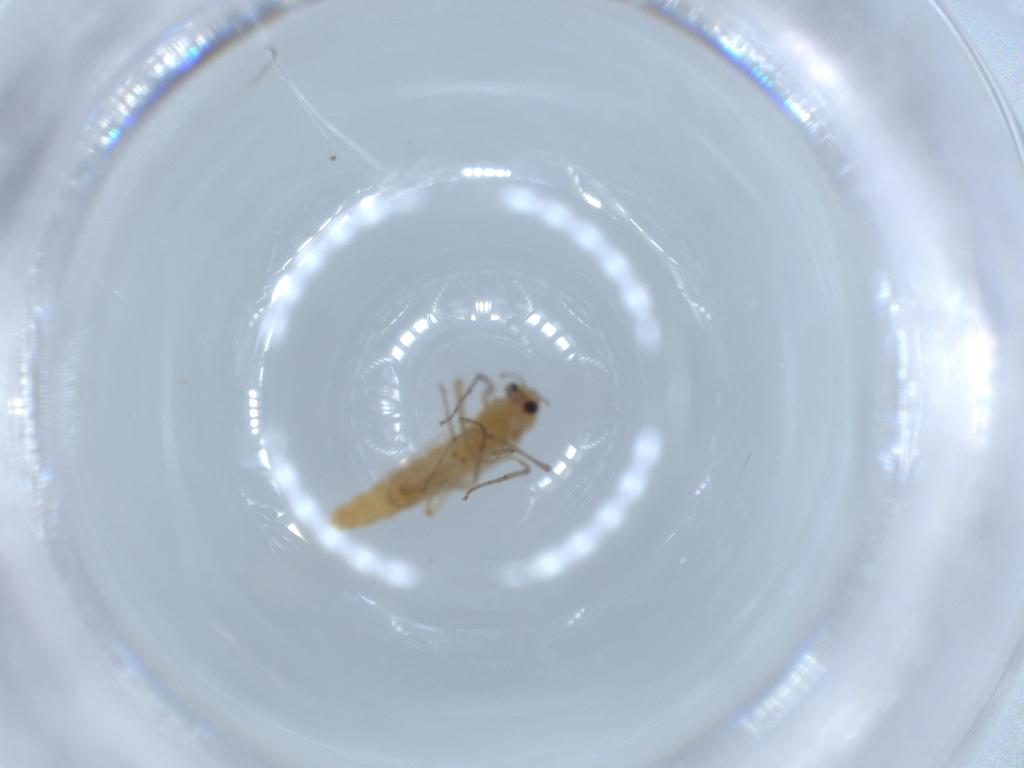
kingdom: Animalia
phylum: Arthropoda
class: Insecta
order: Diptera
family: Chironomidae
